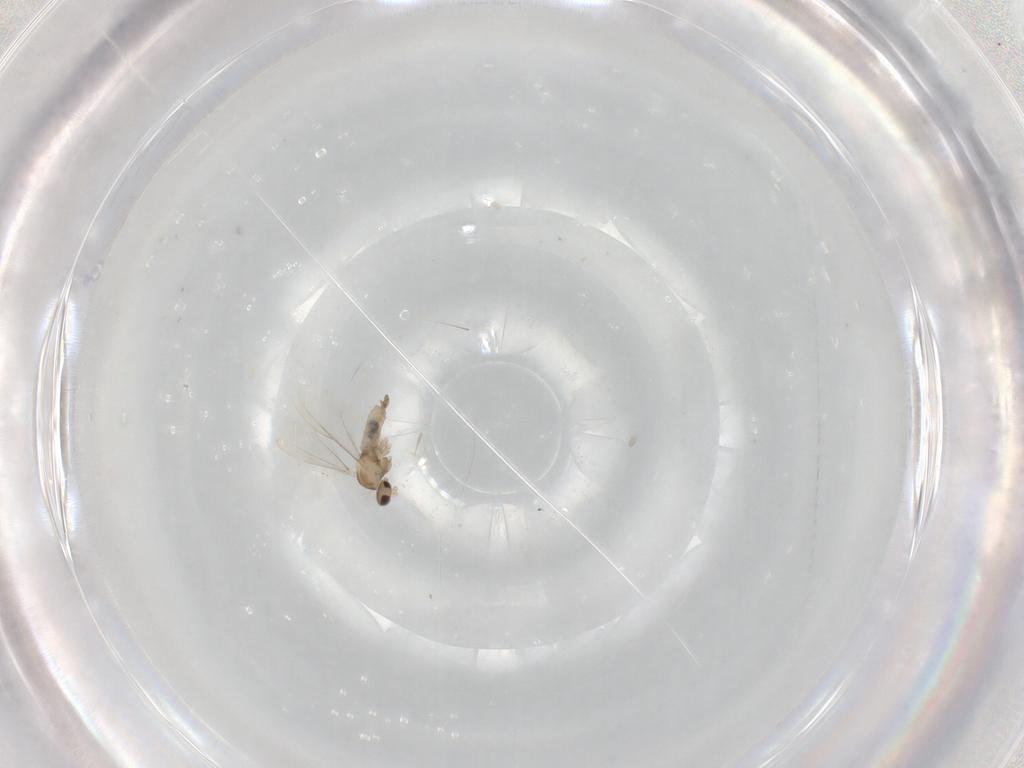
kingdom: Animalia
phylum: Arthropoda
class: Insecta
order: Diptera
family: Cecidomyiidae
